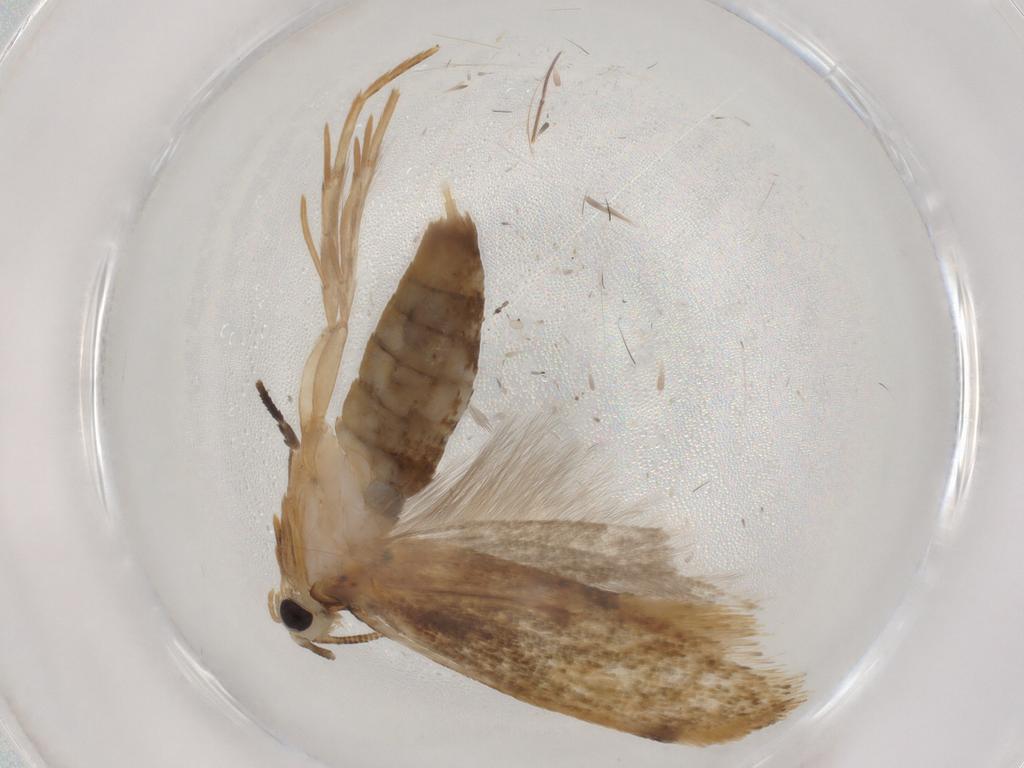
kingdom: Animalia
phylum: Arthropoda
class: Insecta
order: Lepidoptera
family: Tineidae
